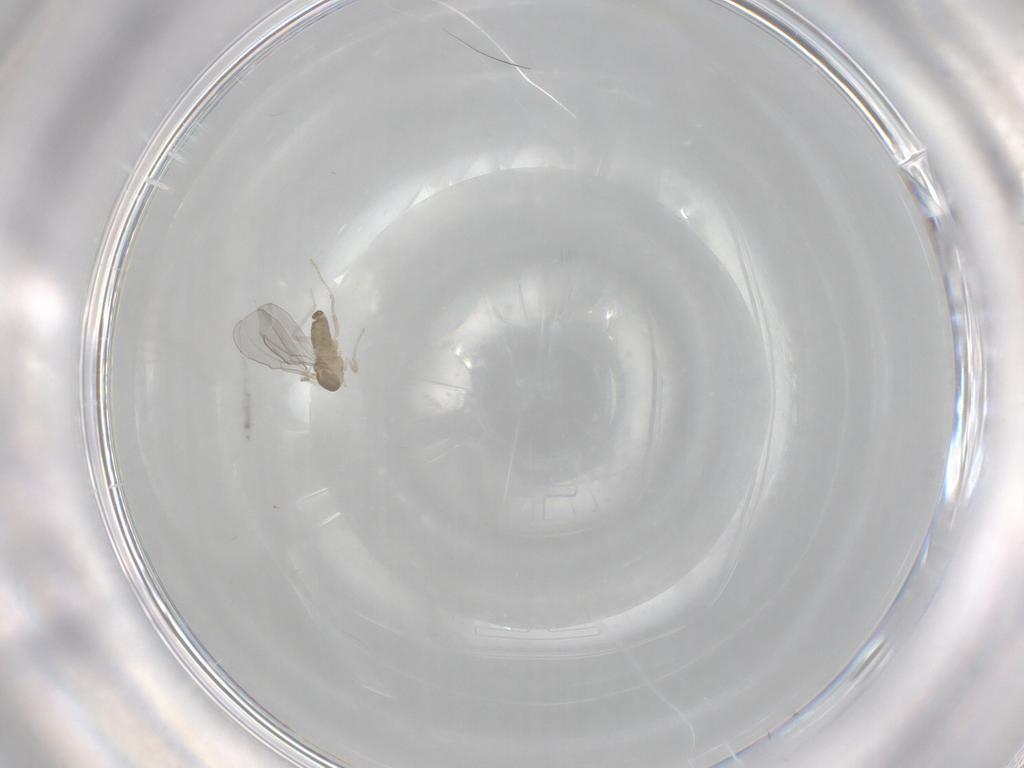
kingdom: Animalia
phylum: Arthropoda
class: Insecta
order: Diptera
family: Cecidomyiidae
